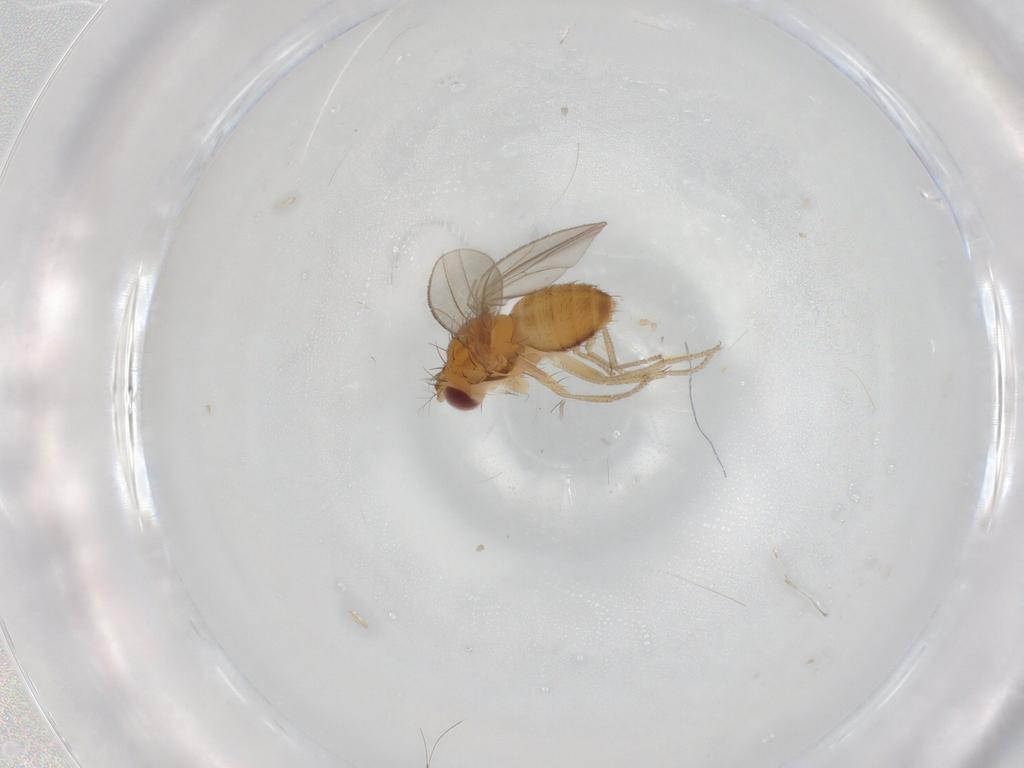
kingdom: Animalia
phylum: Arthropoda
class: Insecta
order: Diptera
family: Drosophilidae
